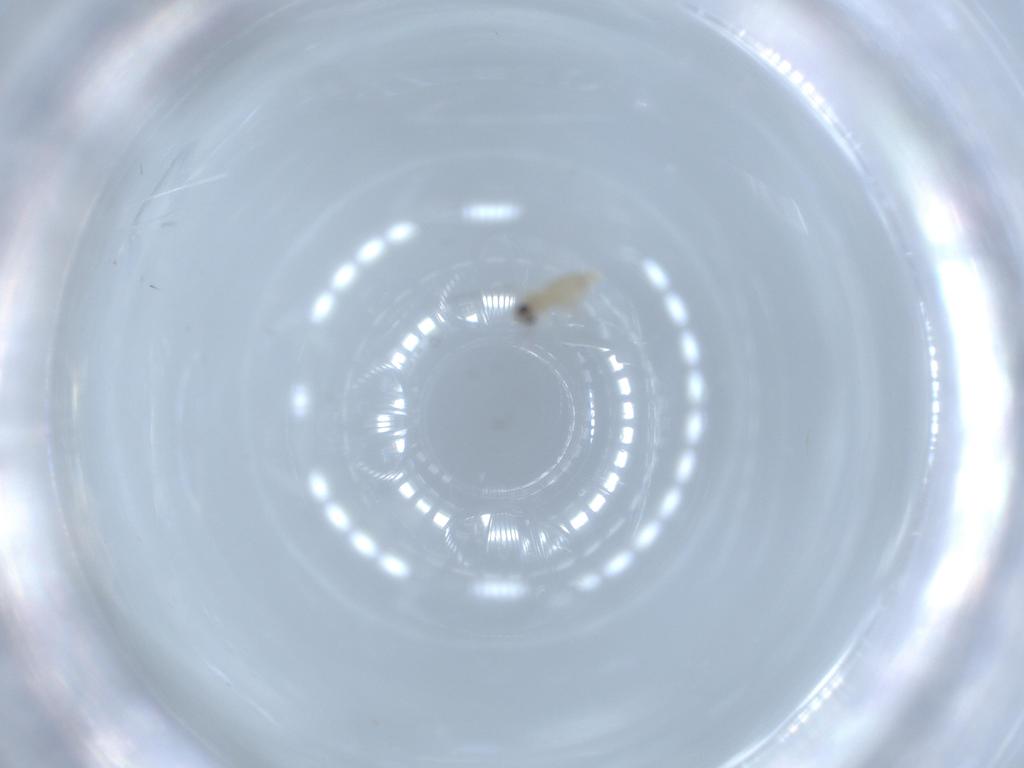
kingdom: Animalia
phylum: Arthropoda
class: Insecta
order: Diptera
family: Cecidomyiidae
